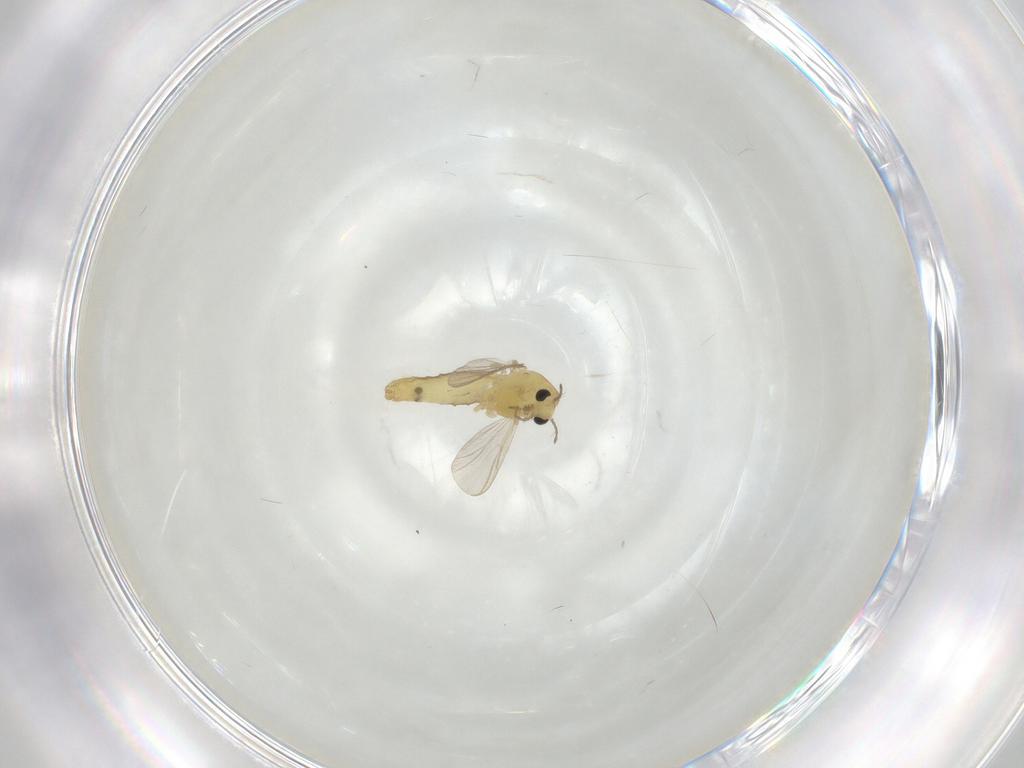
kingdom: Animalia
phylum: Arthropoda
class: Insecta
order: Diptera
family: Chironomidae
